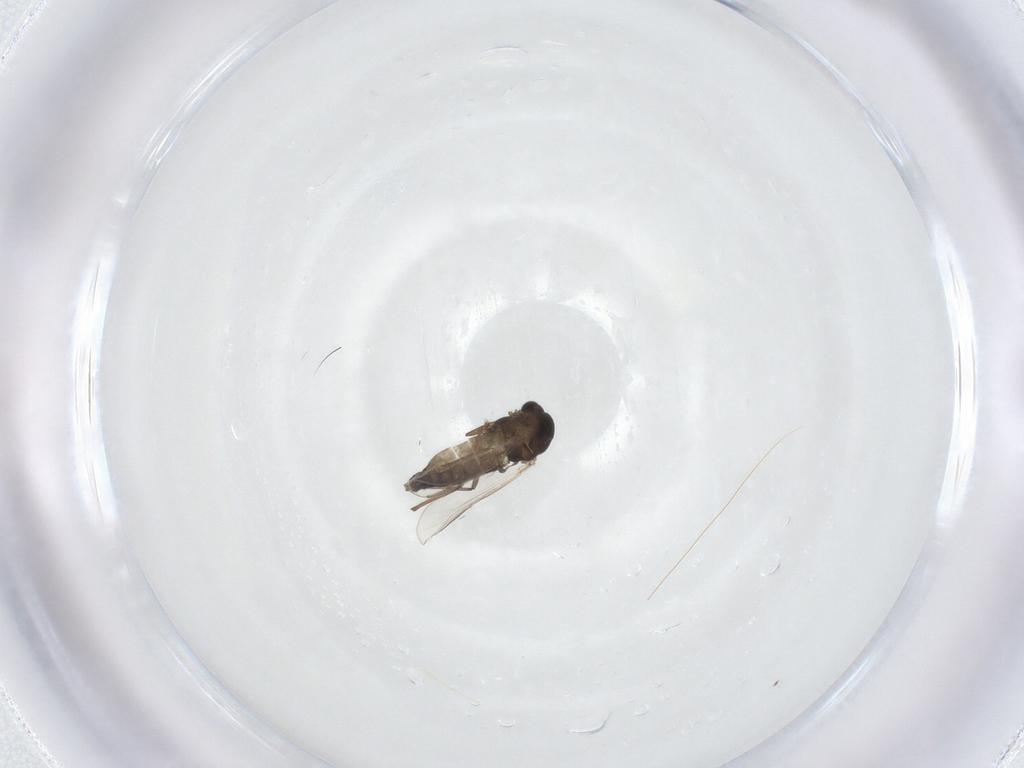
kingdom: Animalia
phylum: Arthropoda
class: Insecta
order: Diptera
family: Chironomidae
